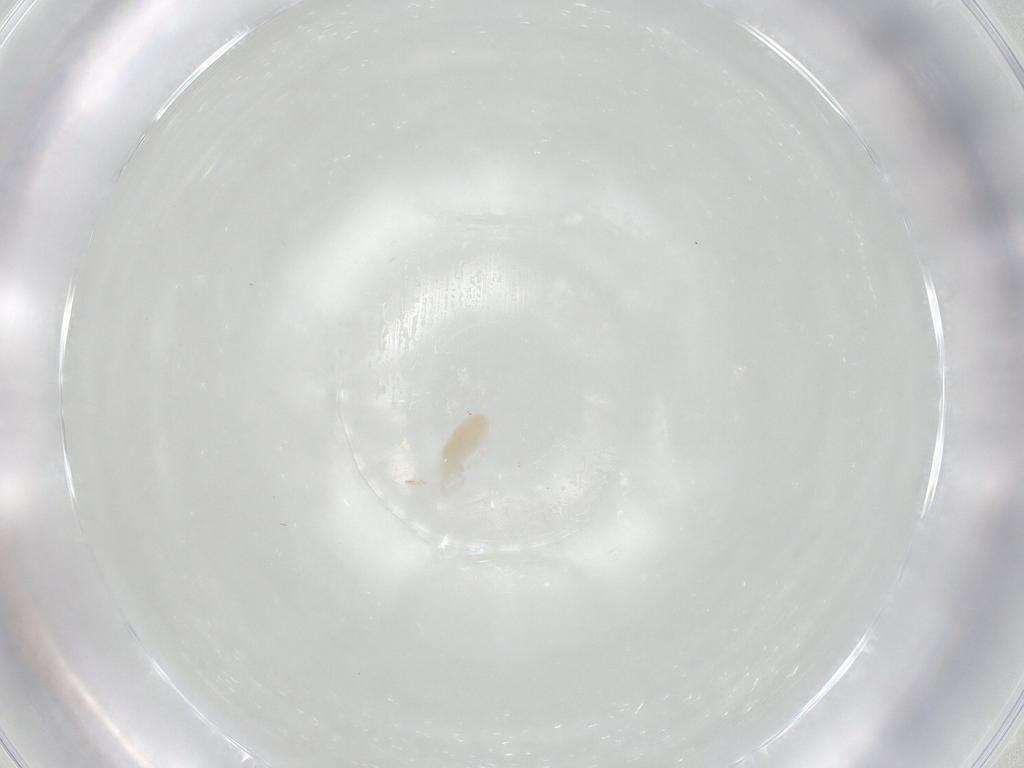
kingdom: Animalia
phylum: Arthropoda
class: Arachnida
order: Trombidiformes
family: Rhagidiidae
